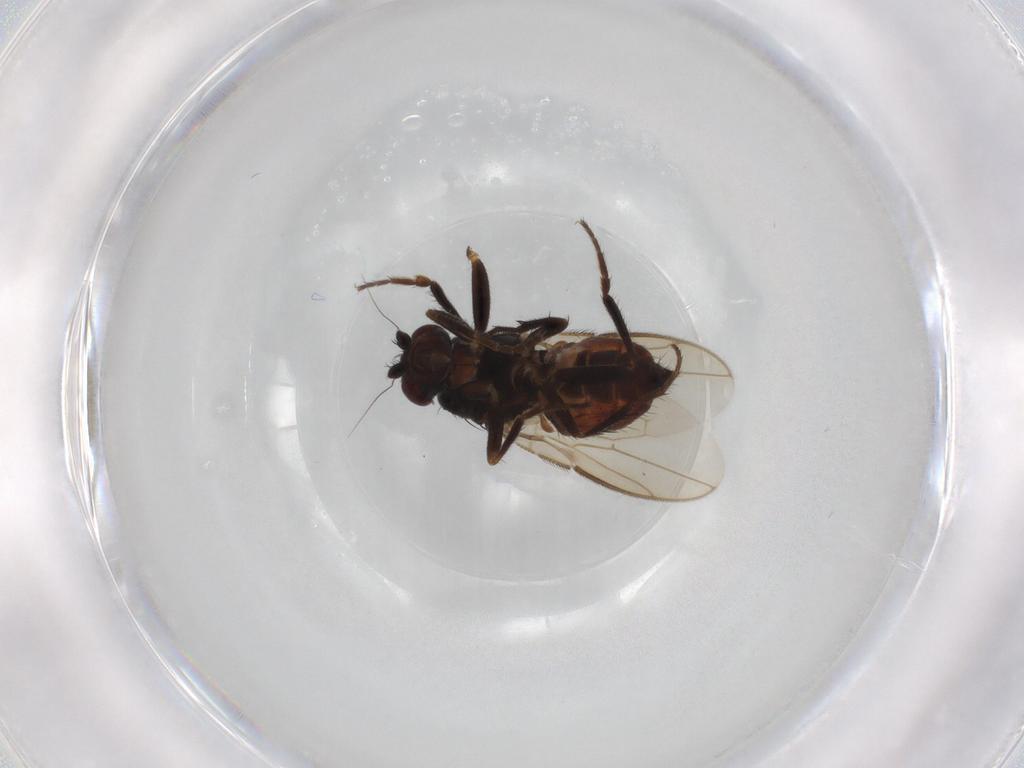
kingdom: Animalia
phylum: Arthropoda
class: Insecta
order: Diptera
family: Sphaeroceridae
